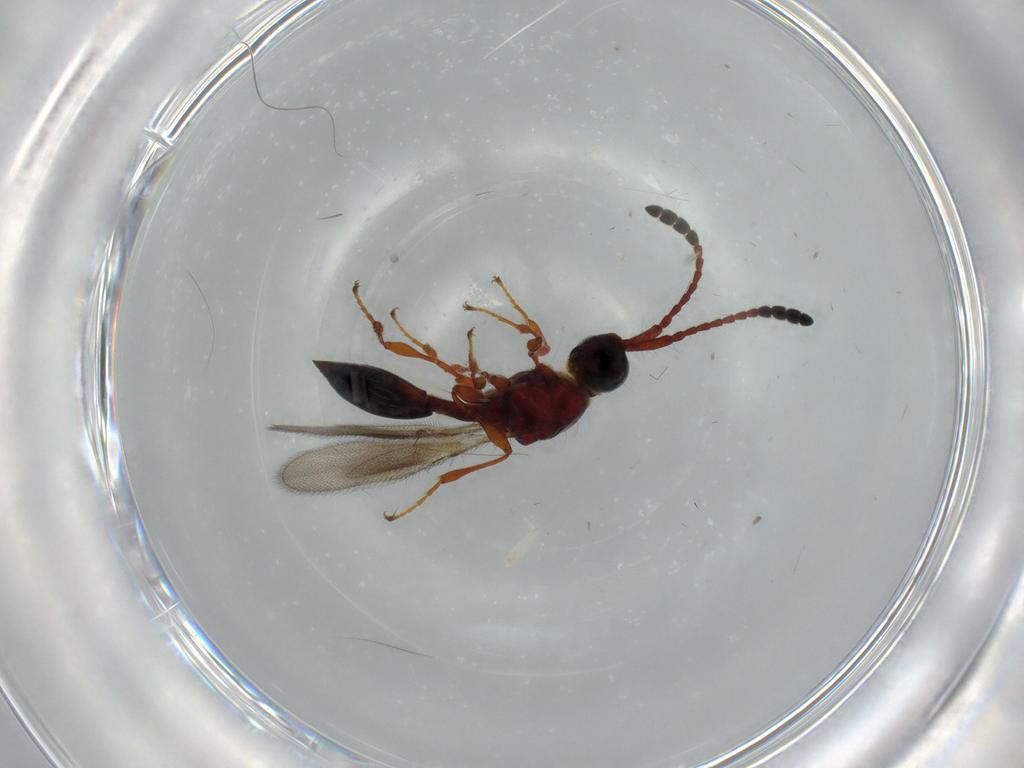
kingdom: Animalia
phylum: Arthropoda
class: Insecta
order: Hymenoptera
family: Diapriidae
